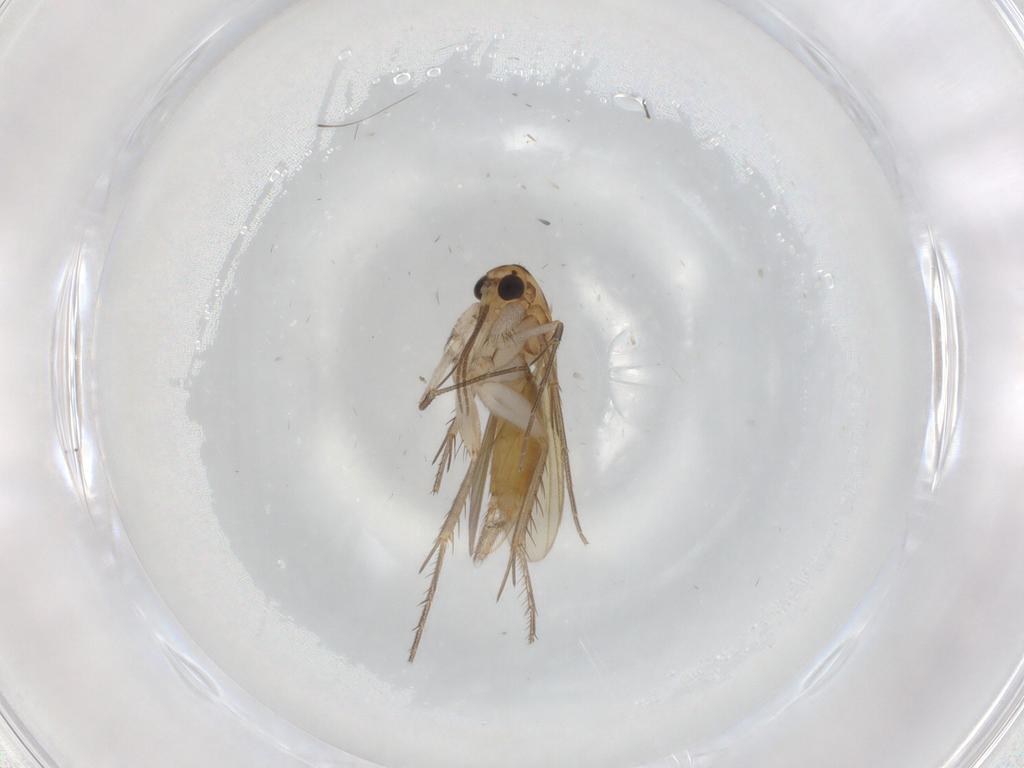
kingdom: Animalia
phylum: Arthropoda
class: Insecta
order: Diptera
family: Mycetophilidae
